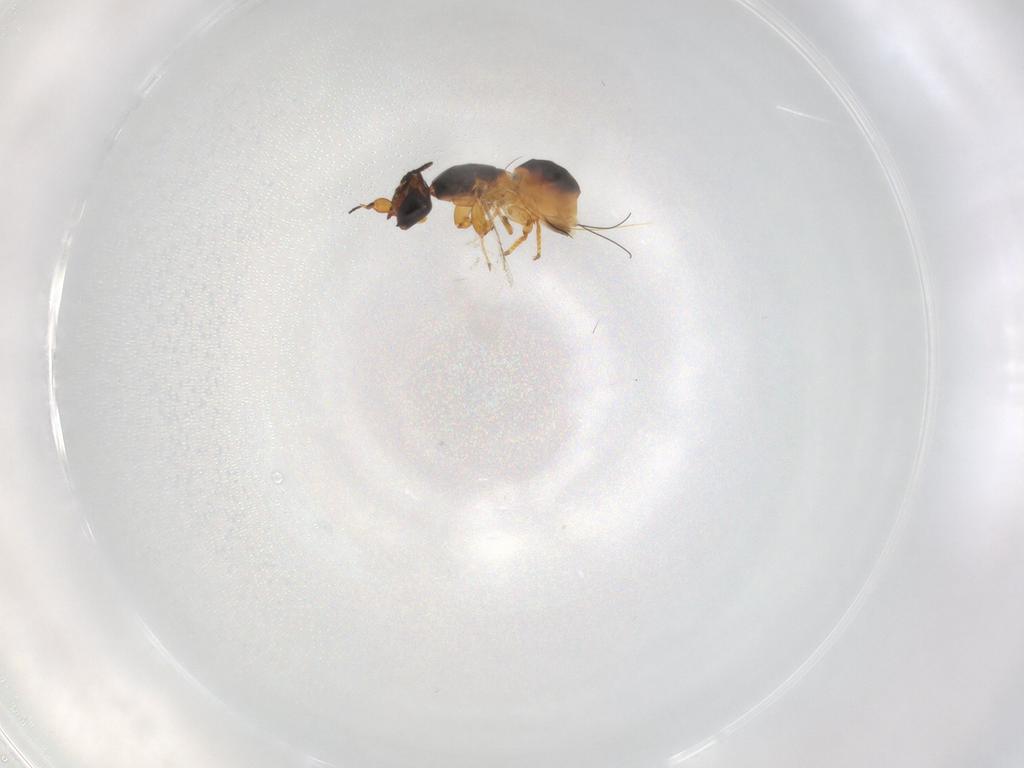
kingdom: Animalia
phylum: Arthropoda
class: Insecta
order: Hymenoptera
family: Agaonidae
